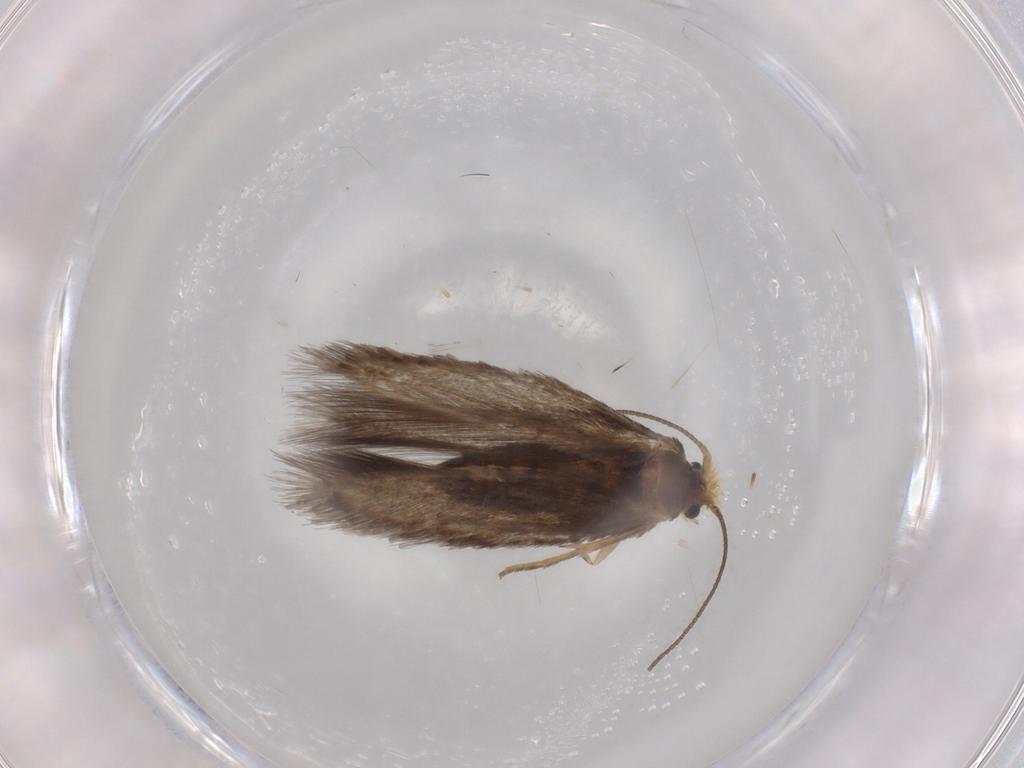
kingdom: Animalia
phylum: Arthropoda
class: Insecta
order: Lepidoptera
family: Nepticulidae
